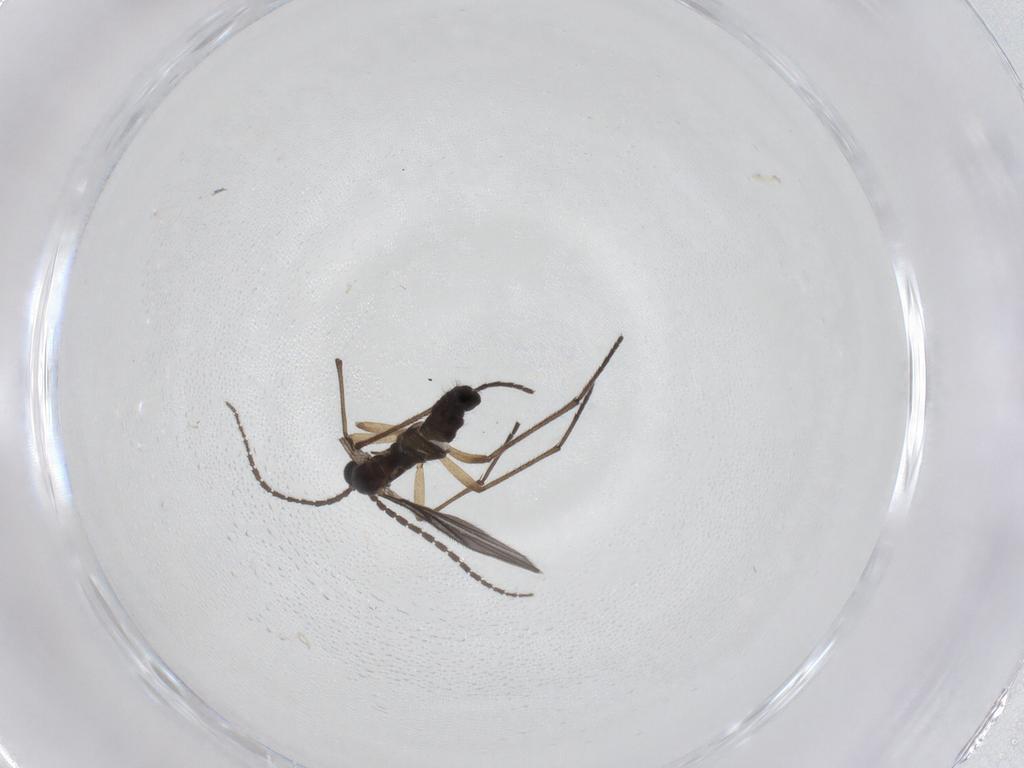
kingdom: Animalia
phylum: Arthropoda
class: Insecta
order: Diptera
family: Sciaridae
